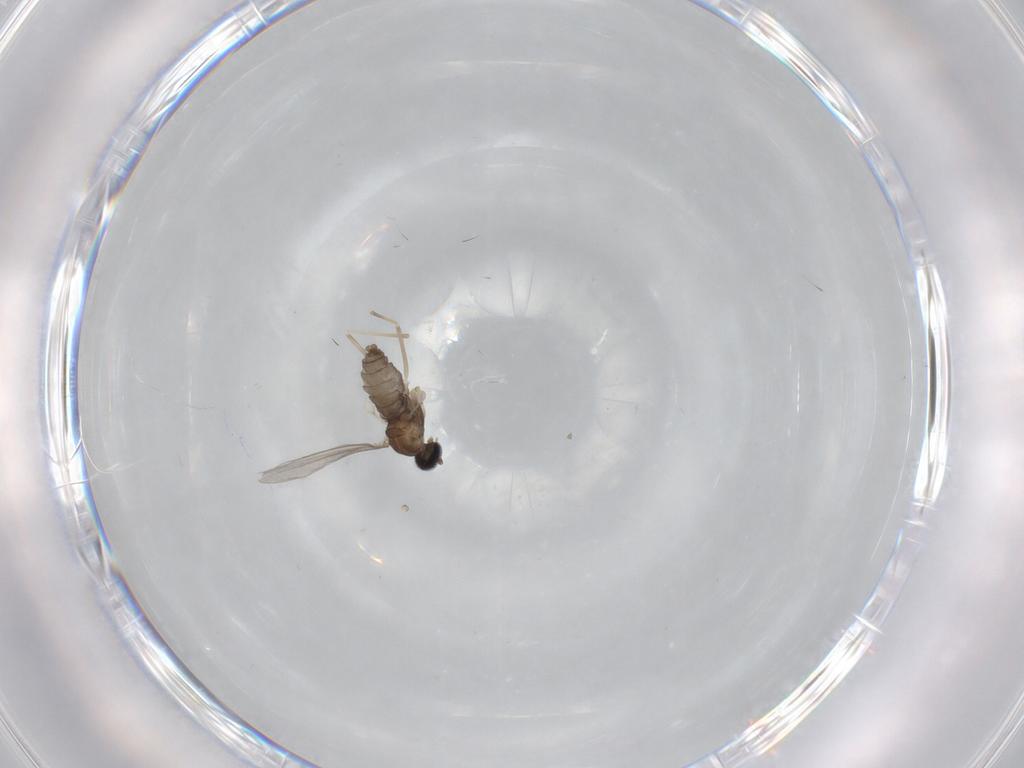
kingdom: Animalia
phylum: Arthropoda
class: Insecta
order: Diptera
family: Cecidomyiidae
